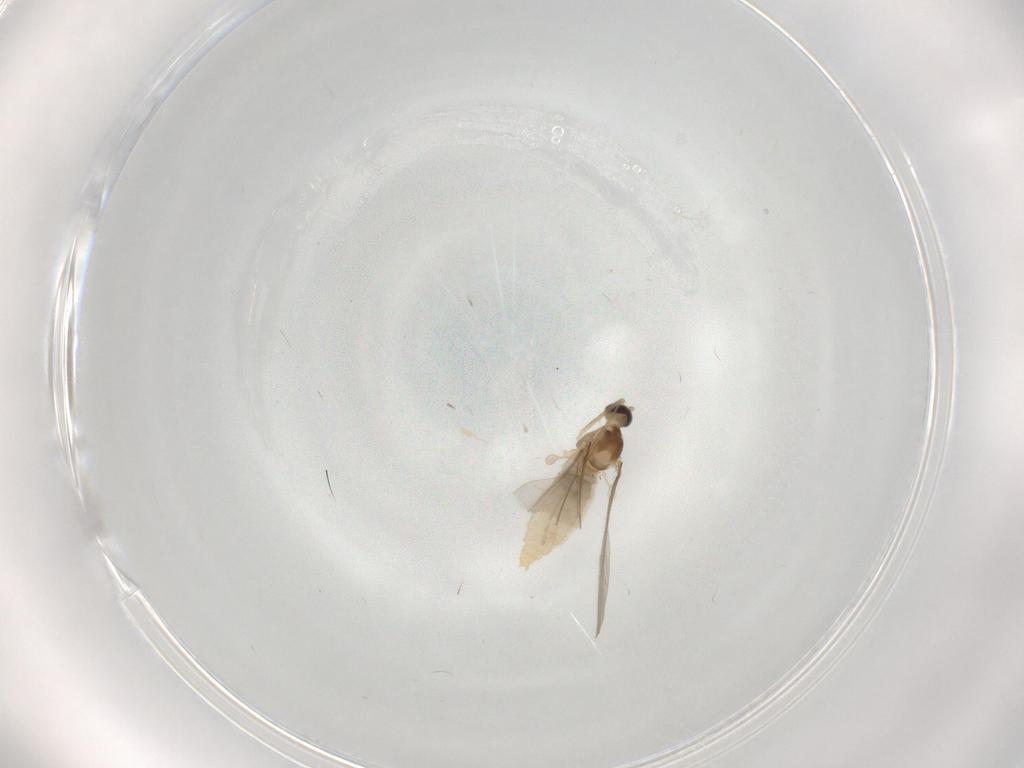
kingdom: Animalia
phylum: Arthropoda
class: Insecta
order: Diptera
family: Cecidomyiidae
